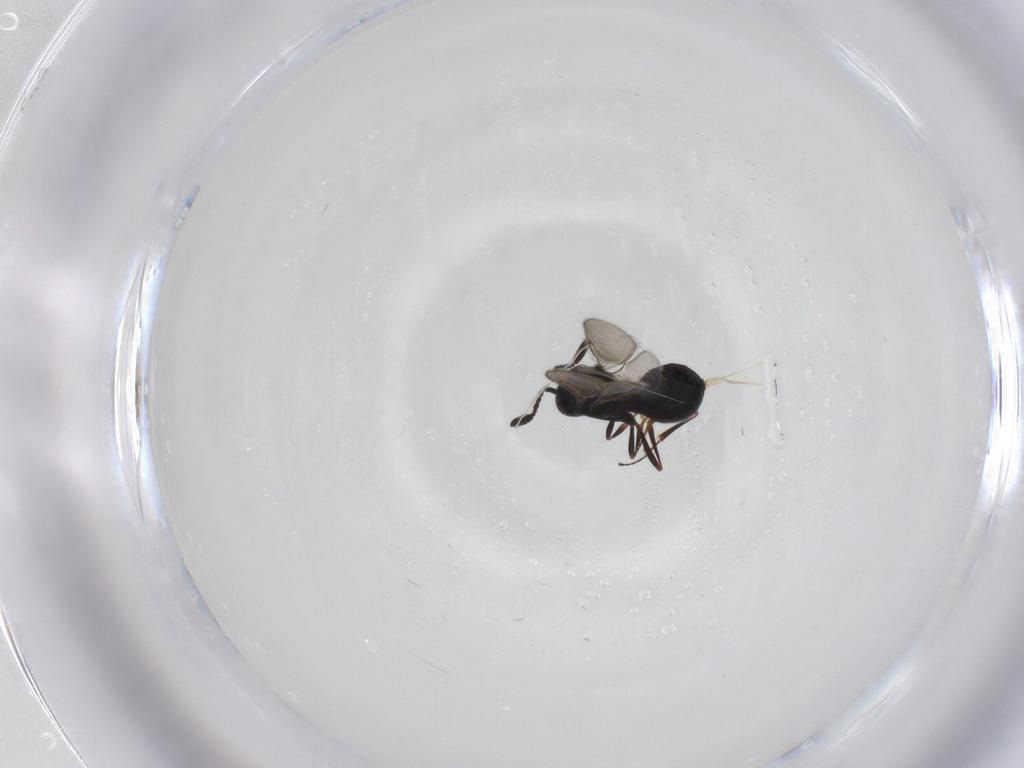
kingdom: Animalia
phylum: Arthropoda
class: Insecta
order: Hymenoptera
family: Scelionidae
